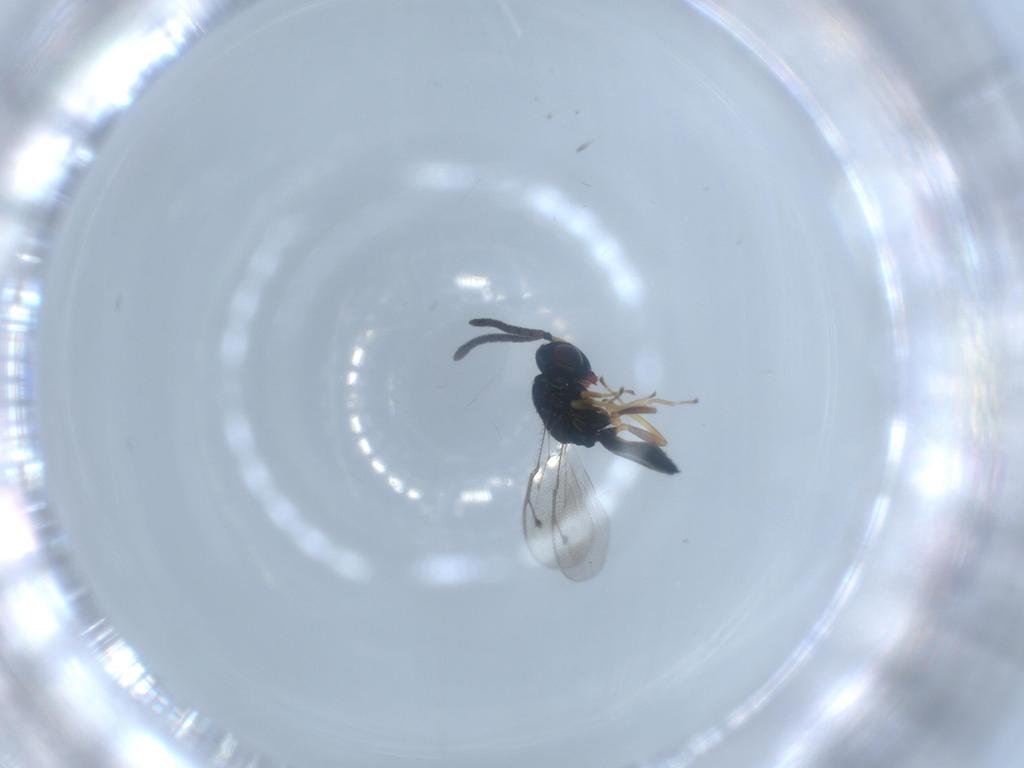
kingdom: Animalia
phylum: Arthropoda
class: Insecta
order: Hymenoptera
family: Pteromalidae
